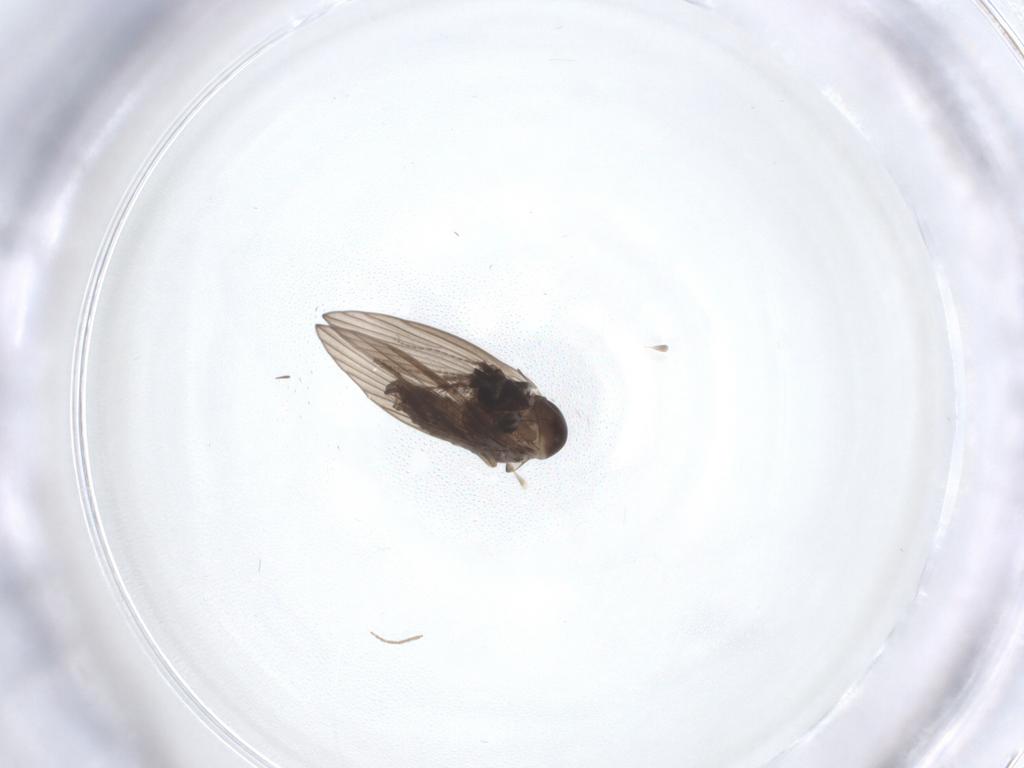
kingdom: Animalia
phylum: Arthropoda
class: Insecta
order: Diptera
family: Psychodidae
